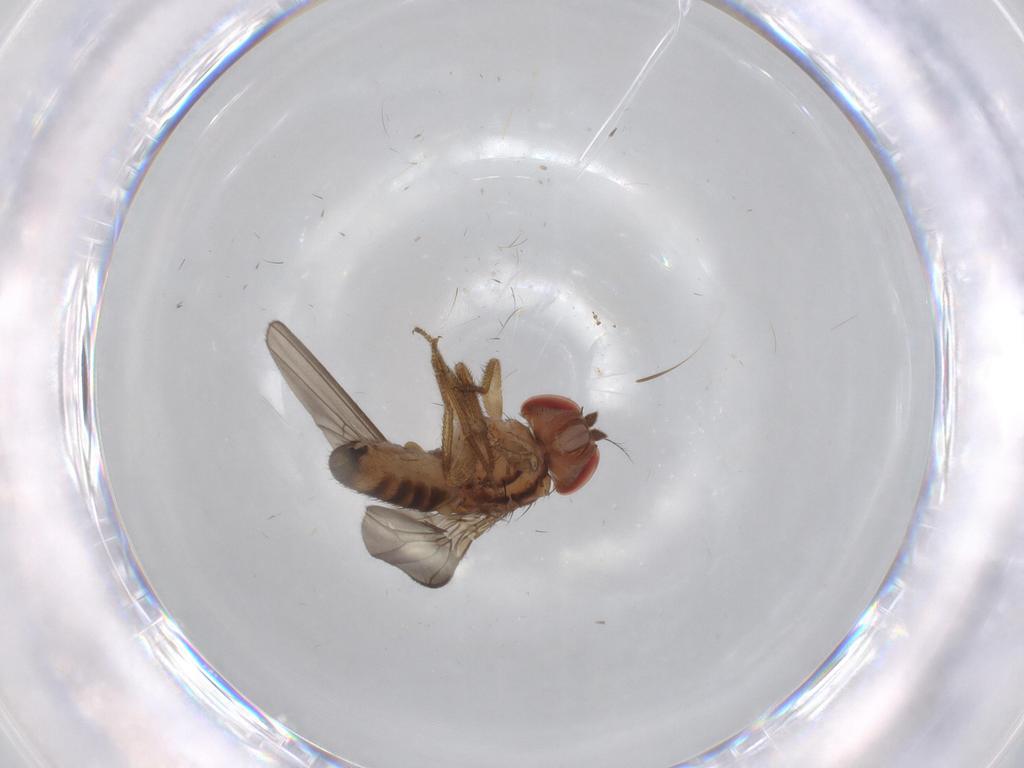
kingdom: Animalia
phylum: Arthropoda
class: Insecta
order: Diptera
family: Drosophilidae
